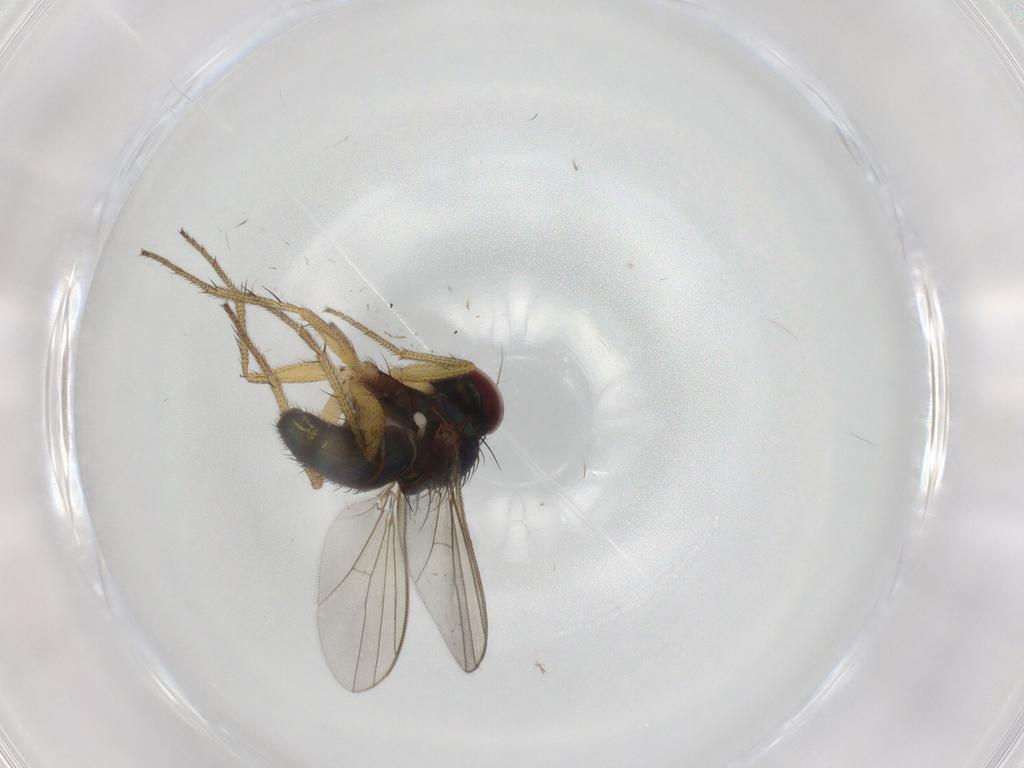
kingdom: Animalia
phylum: Arthropoda
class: Insecta
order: Diptera
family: Dolichopodidae
